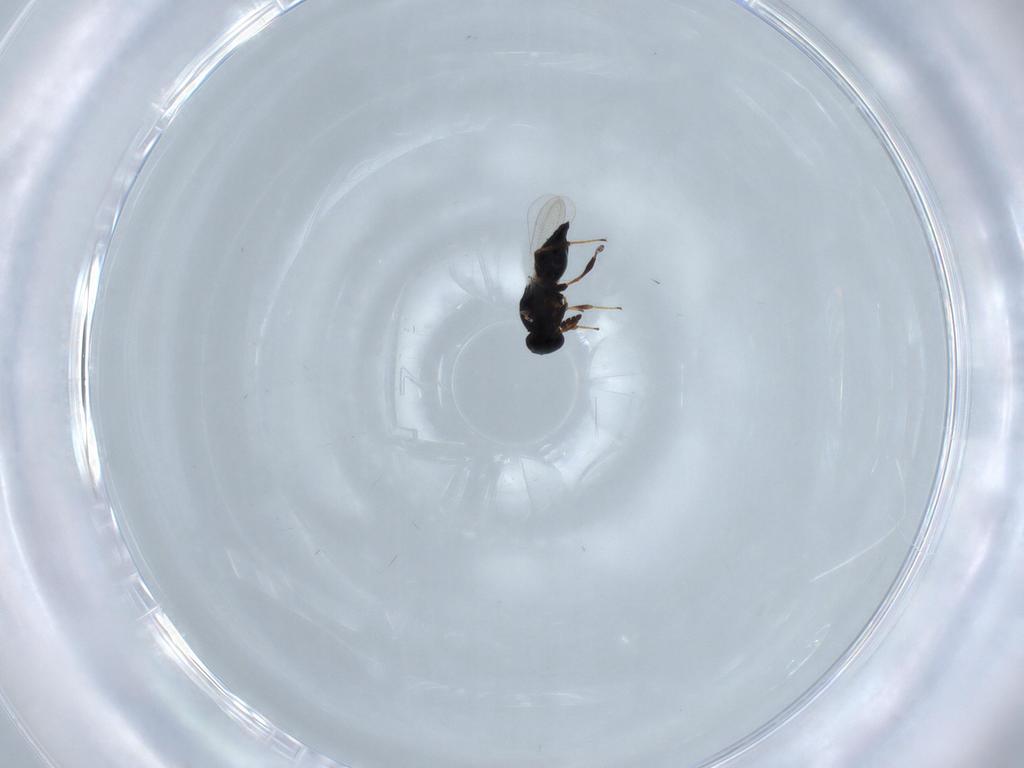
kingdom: Animalia
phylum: Arthropoda
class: Insecta
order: Hymenoptera
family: Platygastridae
